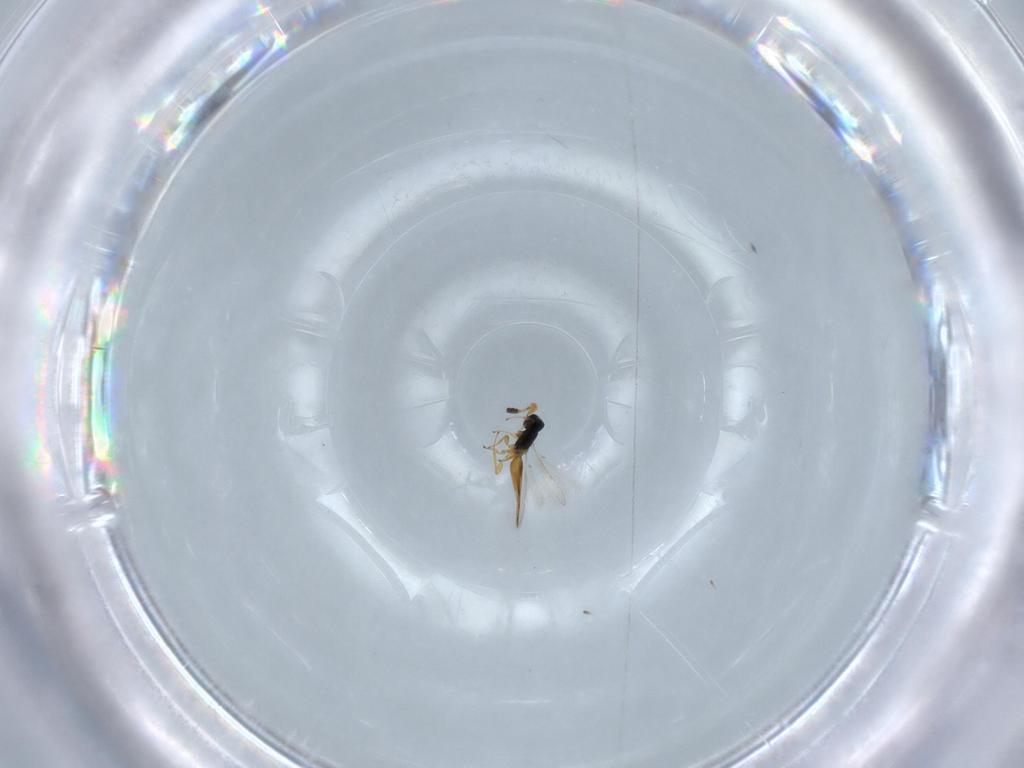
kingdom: Animalia
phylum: Arthropoda
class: Insecta
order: Hymenoptera
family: Scelionidae
